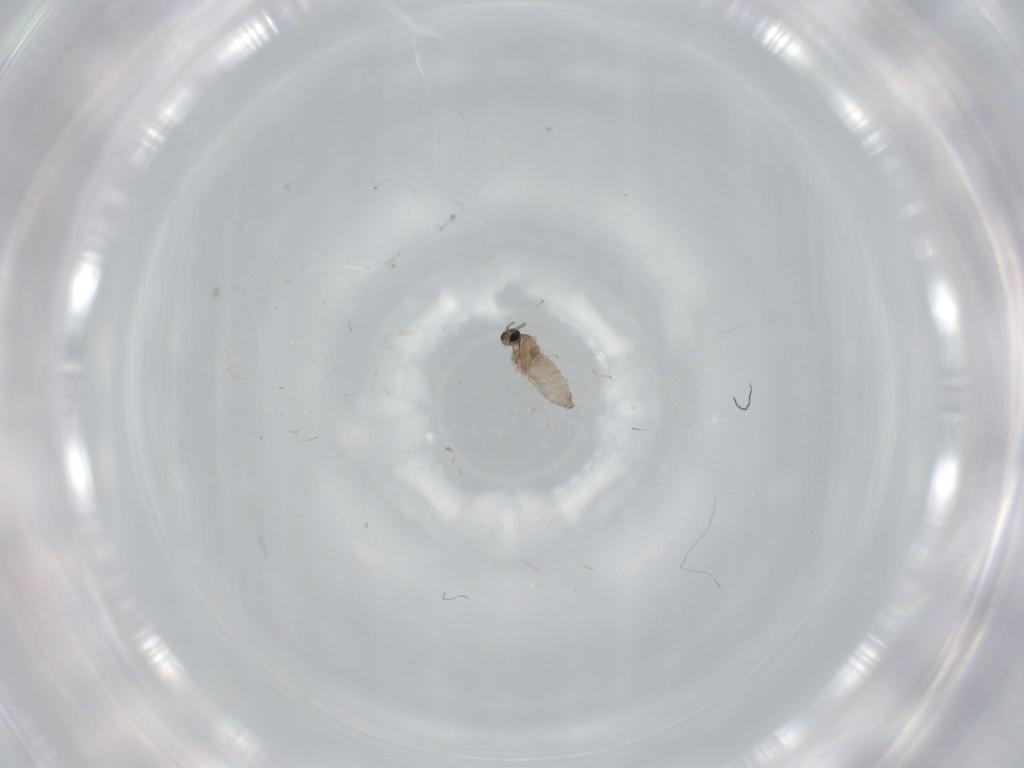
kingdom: Animalia
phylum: Arthropoda
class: Insecta
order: Diptera
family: Cecidomyiidae
